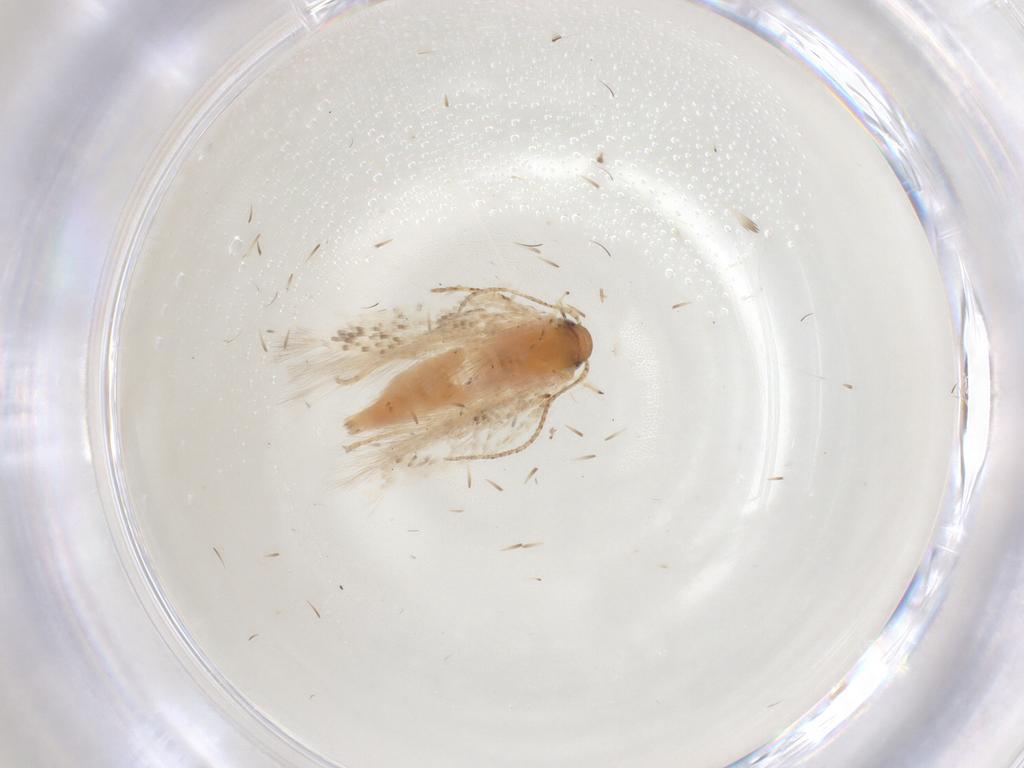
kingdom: Animalia
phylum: Arthropoda
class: Insecta
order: Lepidoptera
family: Gelechiidae
